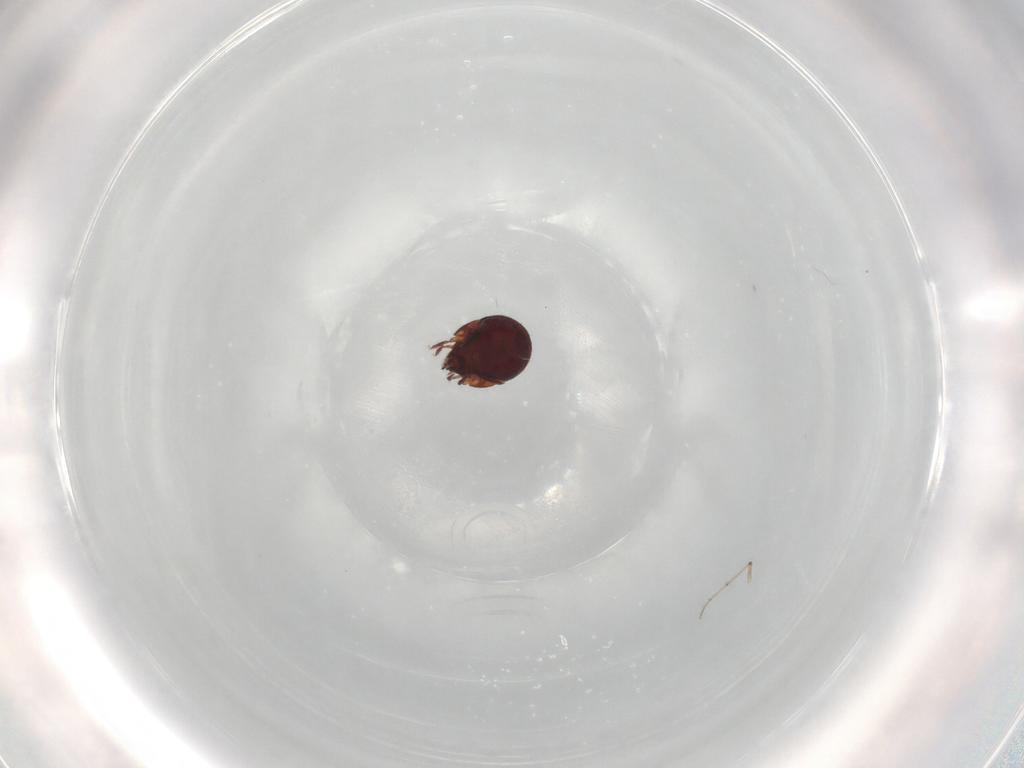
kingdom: Animalia
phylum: Arthropoda
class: Arachnida
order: Sarcoptiformes
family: Humerobatidae
